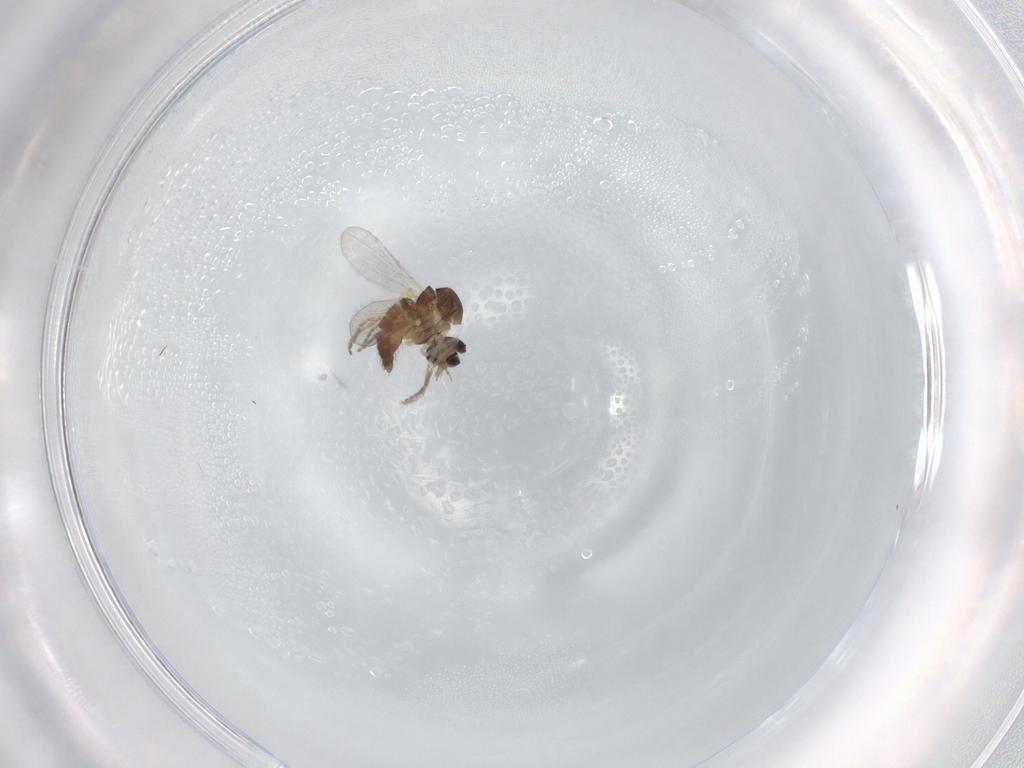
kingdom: Animalia
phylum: Arthropoda
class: Insecta
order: Diptera
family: Ceratopogonidae
